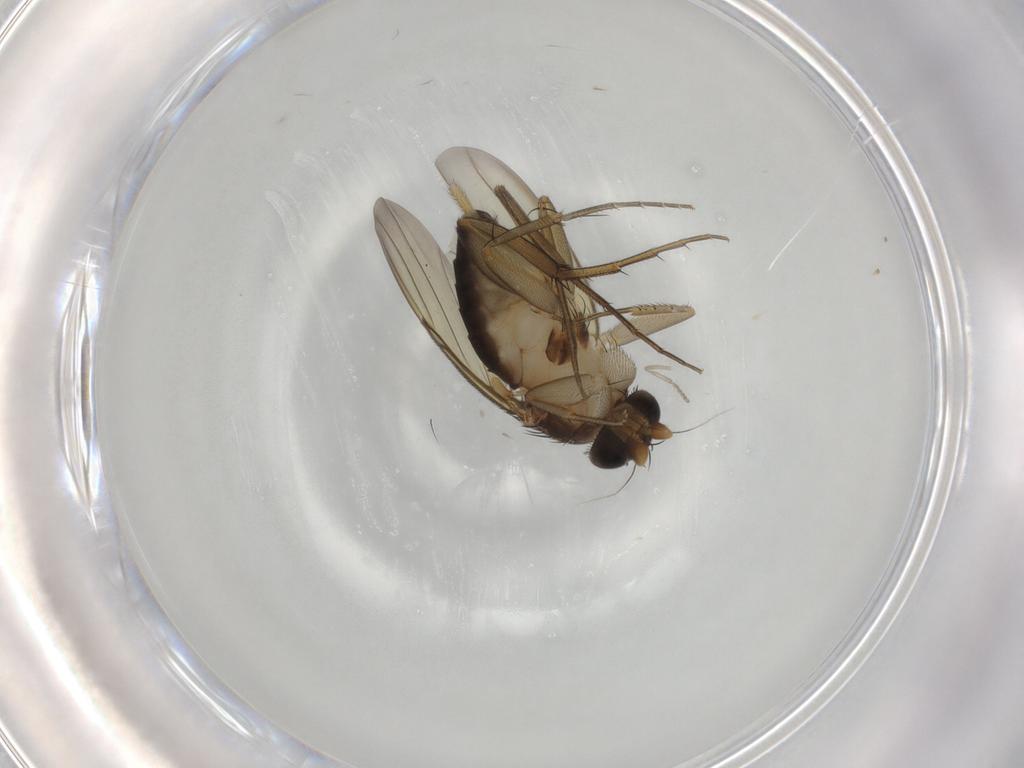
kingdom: Animalia
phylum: Arthropoda
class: Insecta
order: Diptera
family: Phoridae
